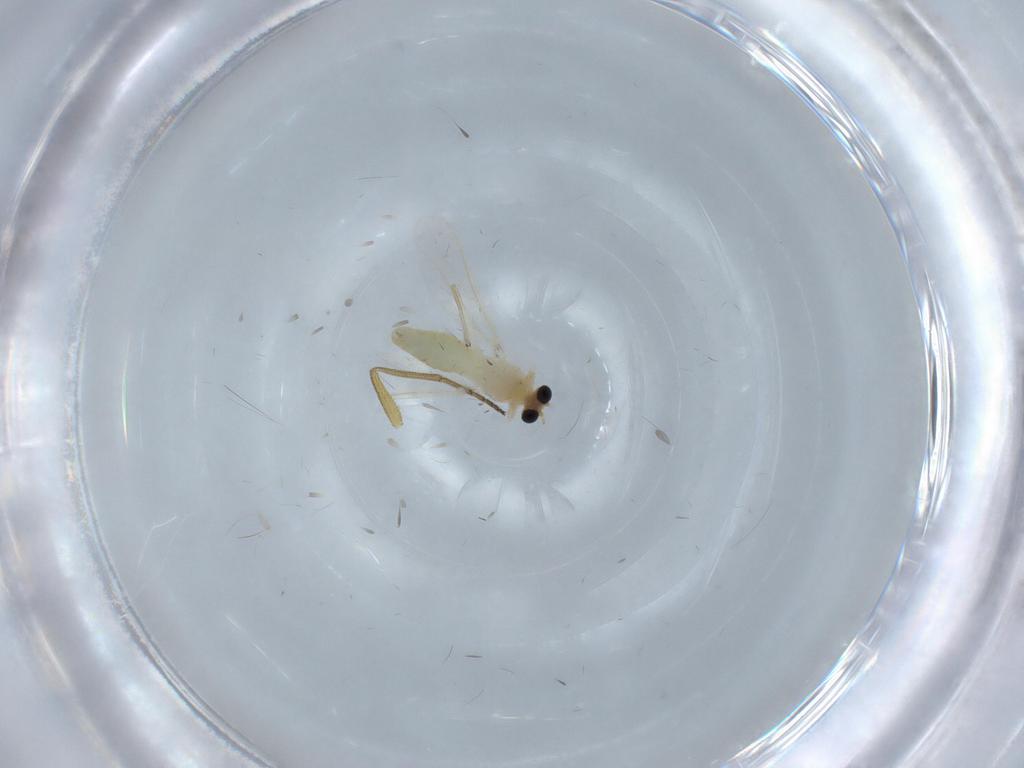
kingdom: Animalia
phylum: Arthropoda
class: Insecta
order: Diptera
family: Chironomidae
